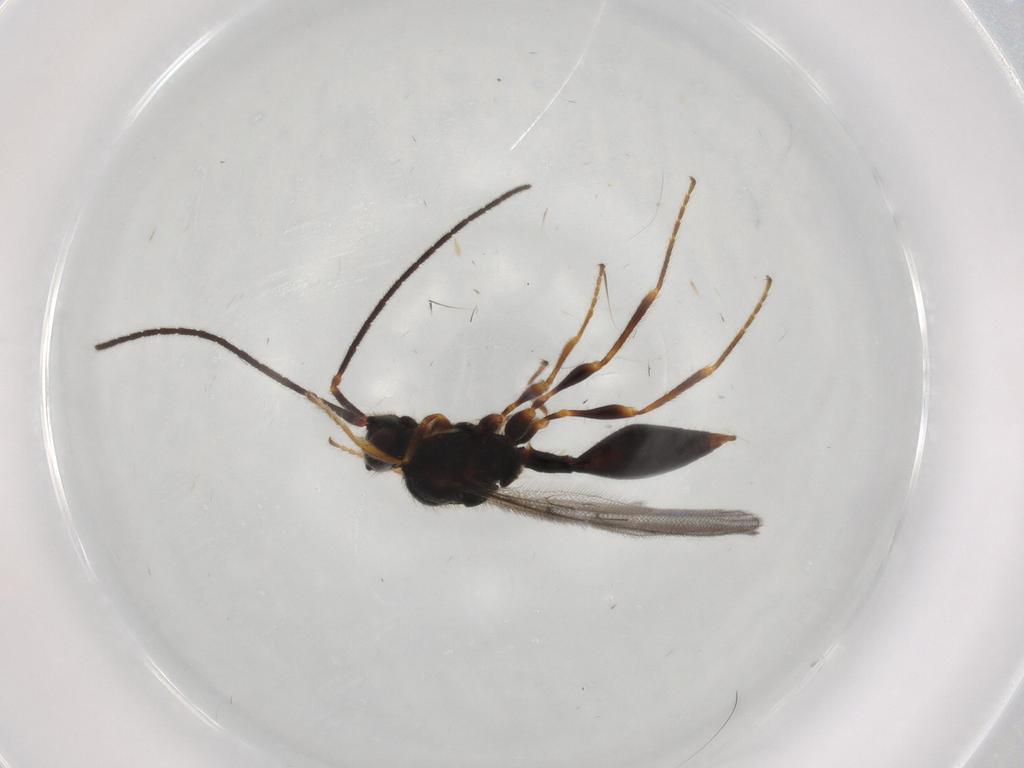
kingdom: Animalia
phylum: Arthropoda
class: Insecta
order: Hymenoptera
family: Diapriidae
